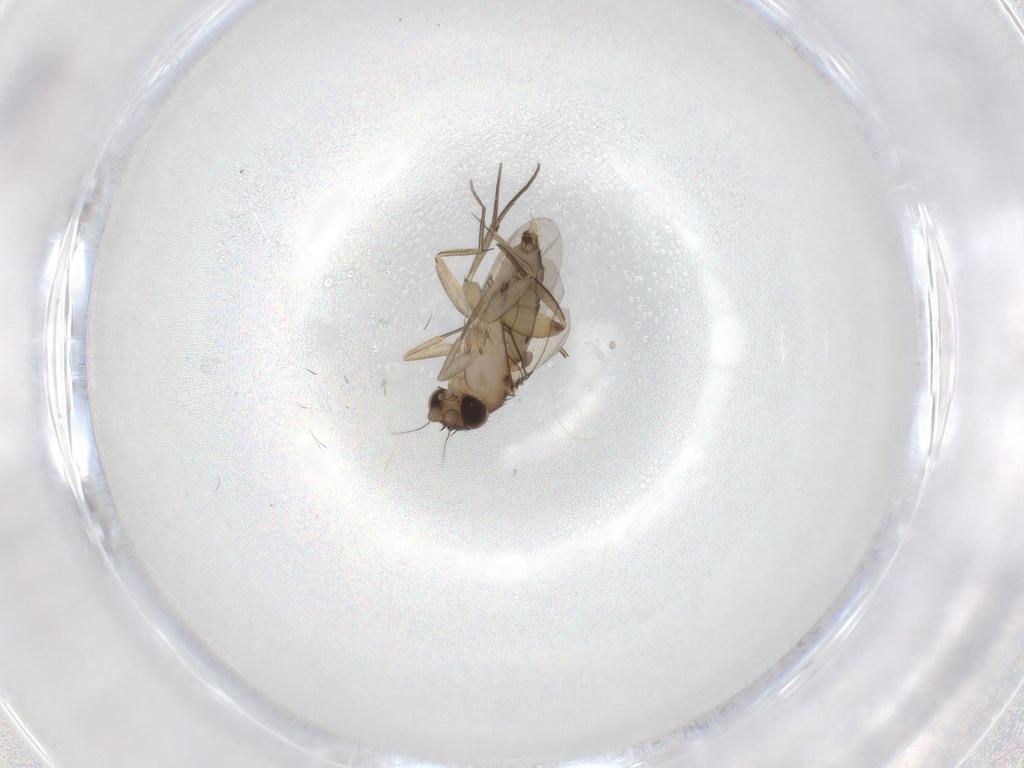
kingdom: Animalia
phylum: Arthropoda
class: Insecta
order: Diptera
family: Phoridae
